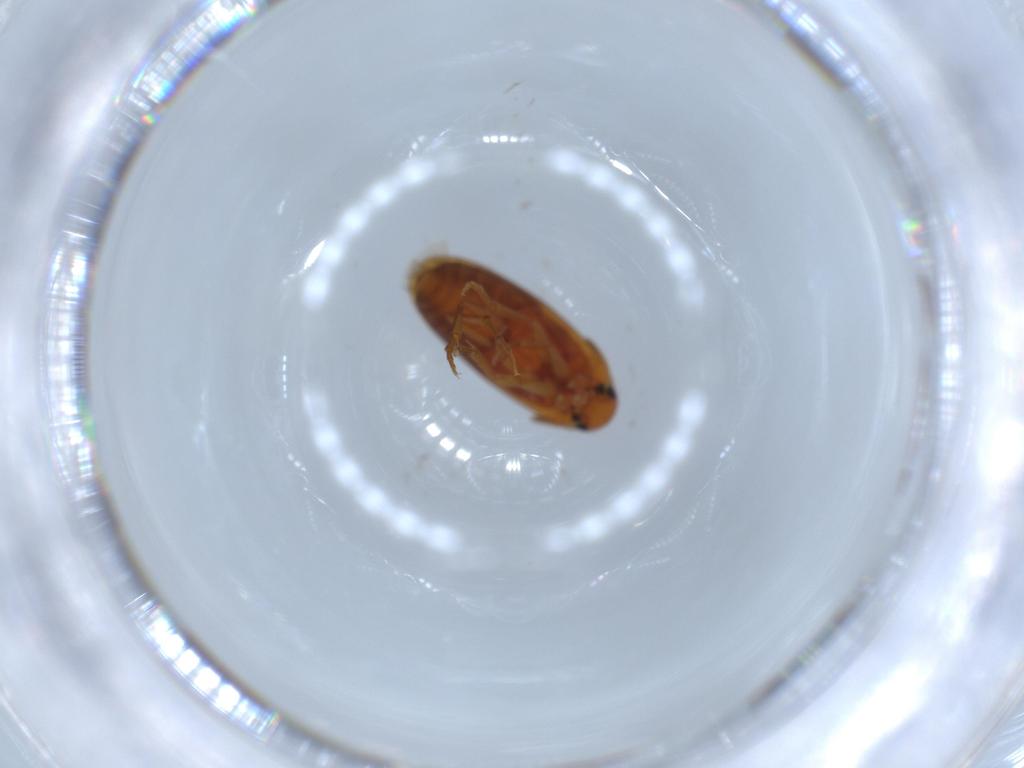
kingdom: Animalia
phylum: Arthropoda
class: Insecta
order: Coleoptera
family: Scraptiidae
